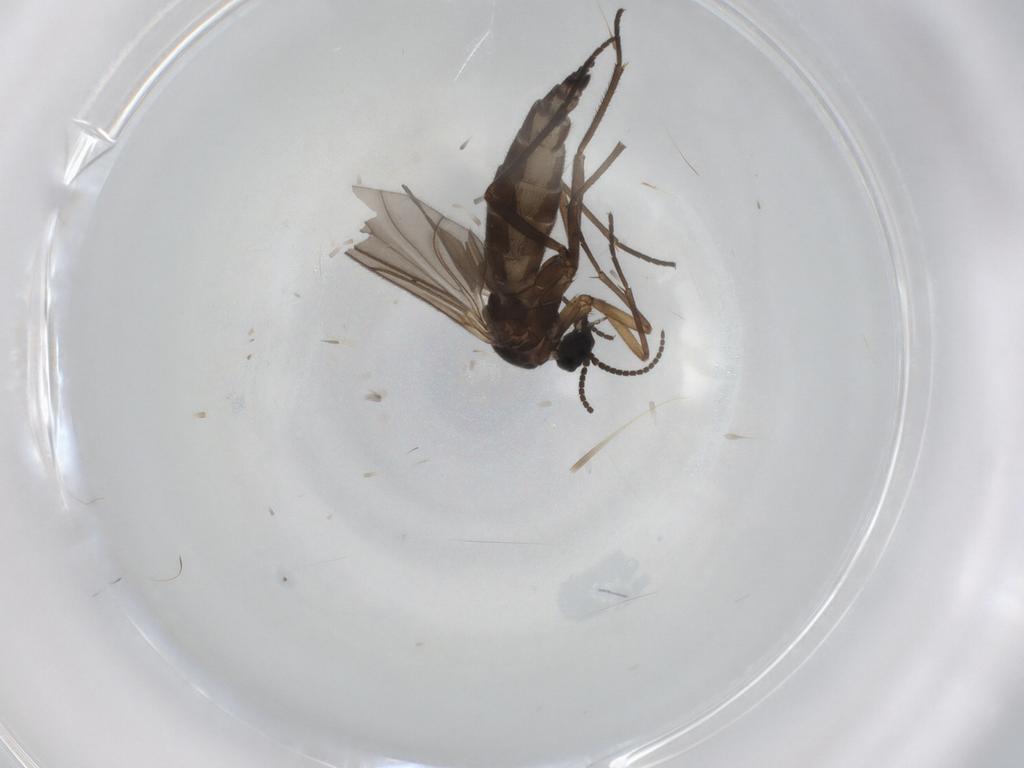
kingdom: Animalia
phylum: Arthropoda
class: Insecta
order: Diptera
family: Sciaridae
